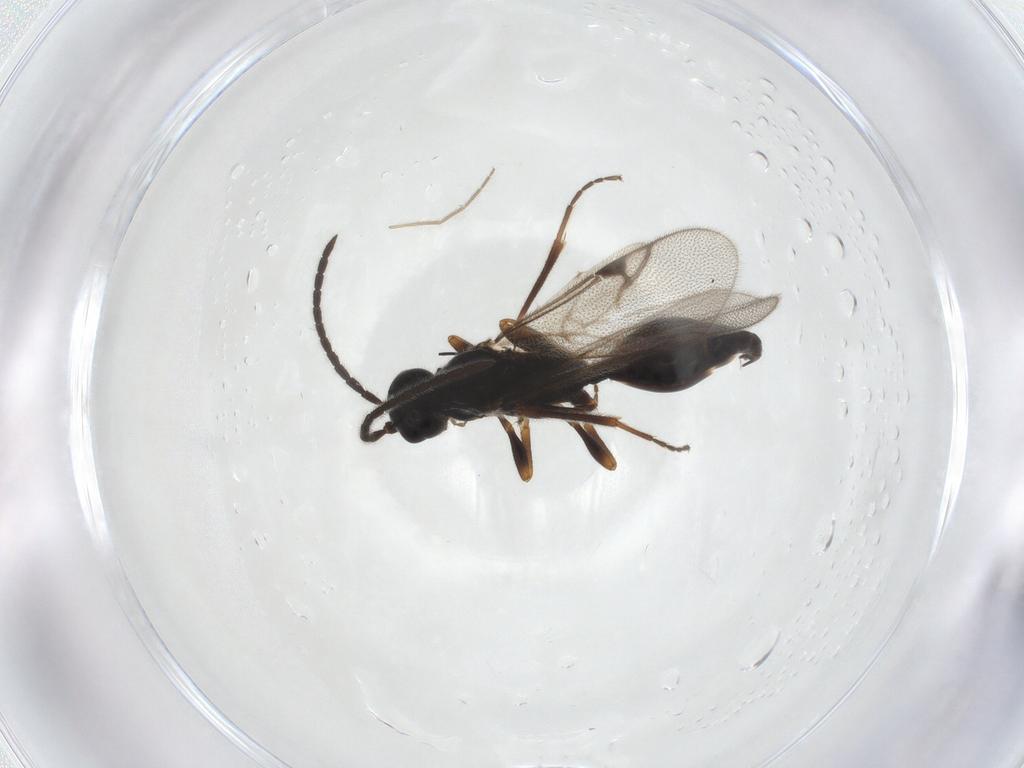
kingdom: Animalia
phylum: Arthropoda
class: Insecta
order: Hymenoptera
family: Proctotrupidae
